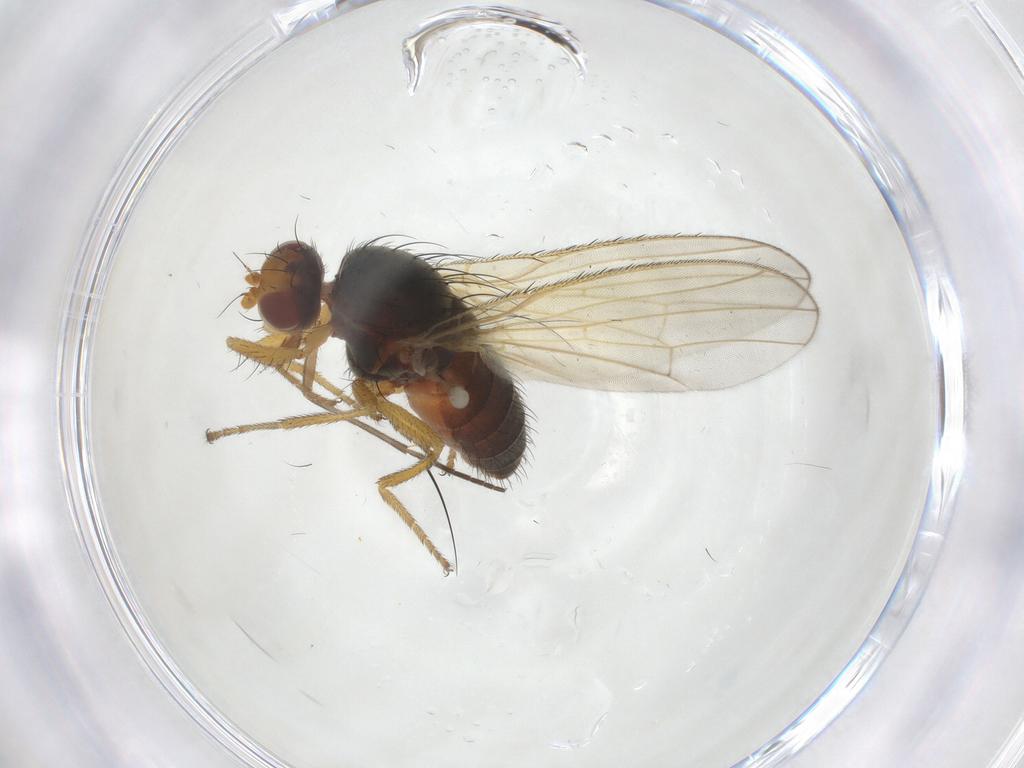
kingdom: Animalia
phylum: Arthropoda
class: Insecta
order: Diptera
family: Heleomyzidae
